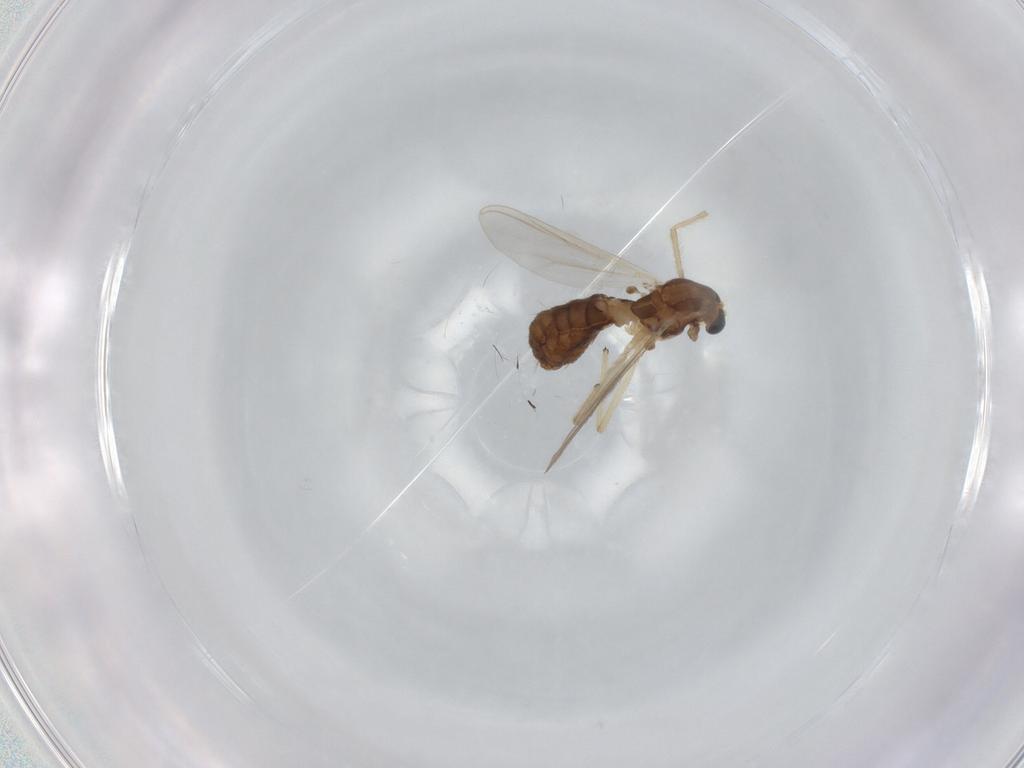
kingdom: Animalia
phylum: Arthropoda
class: Insecta
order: Diptera
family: Chironomidae
